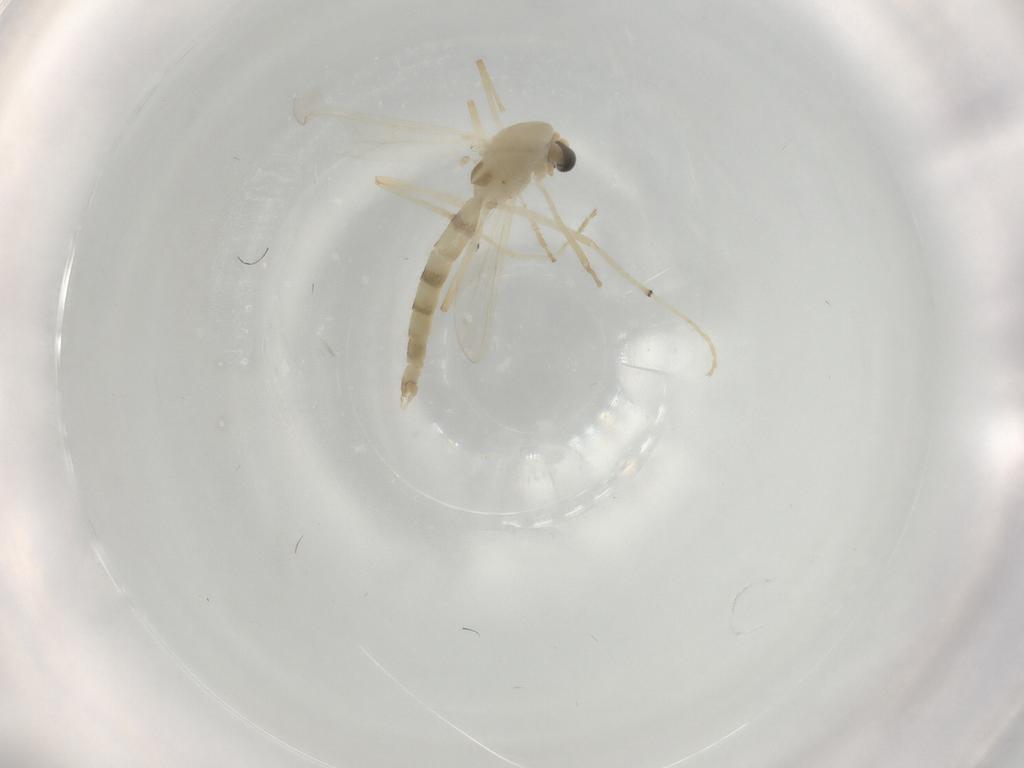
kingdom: Animalia
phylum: Arthropoda
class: Insecta
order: Diptera
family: Chironomidae
